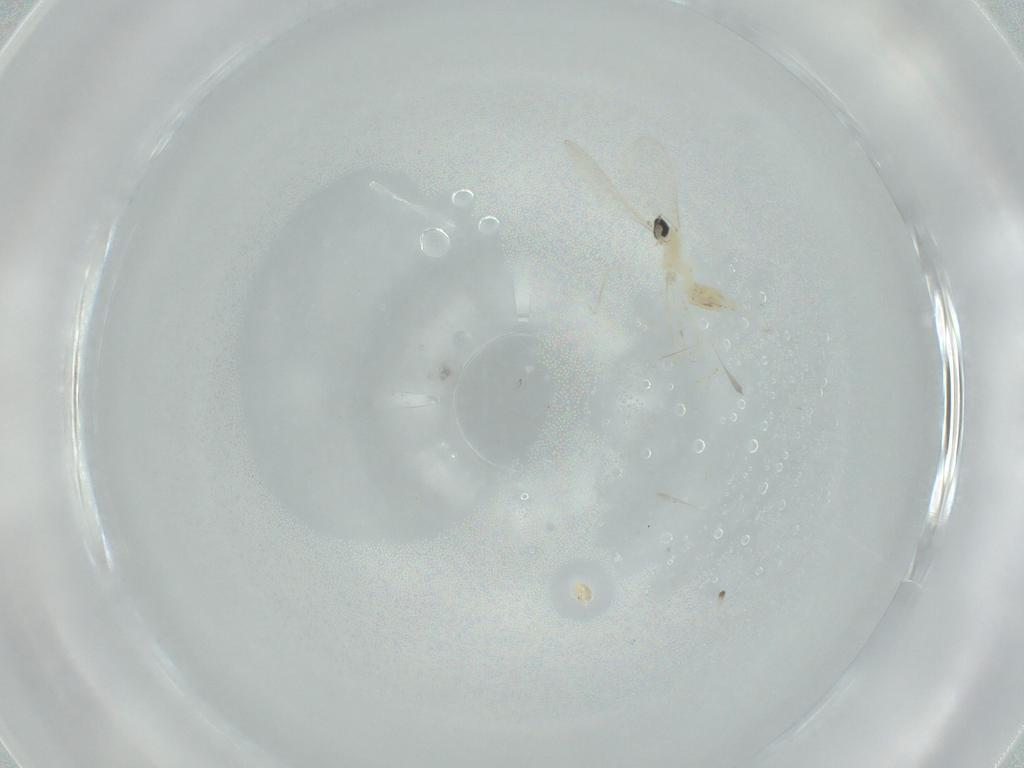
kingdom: Animalia
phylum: Arthropoda
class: Insecta
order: Diptera
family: Cecidomyiidae
